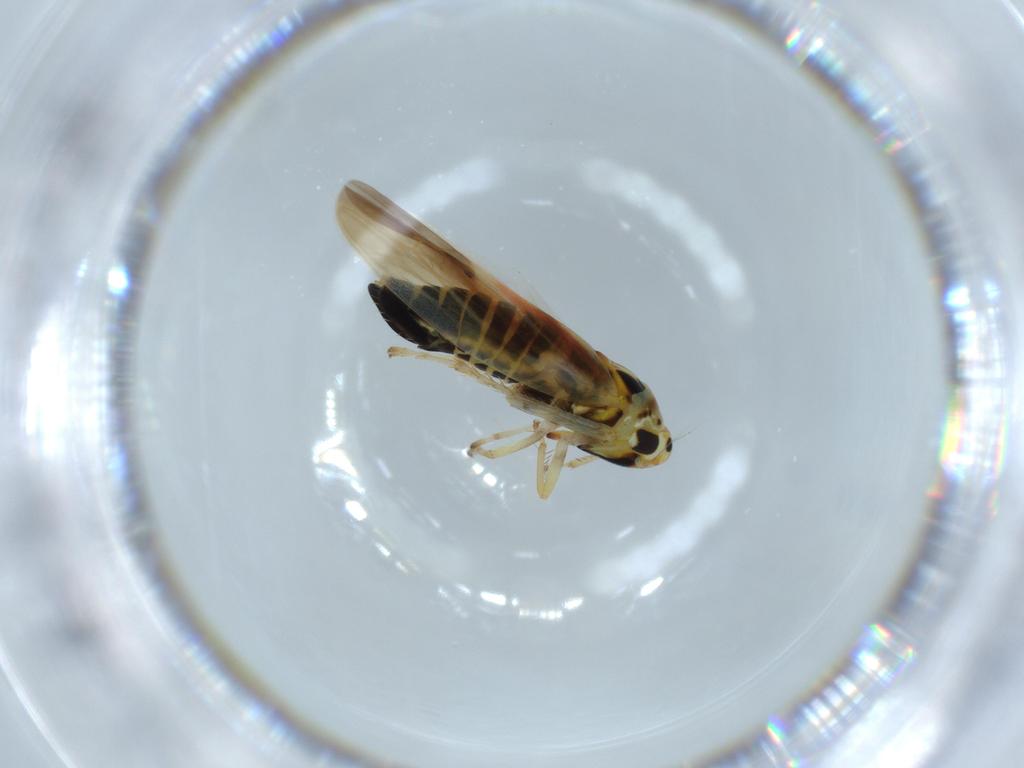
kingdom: Animalia
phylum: Arthropoda
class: Insecta
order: Hemiptera
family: Cicadellidae
